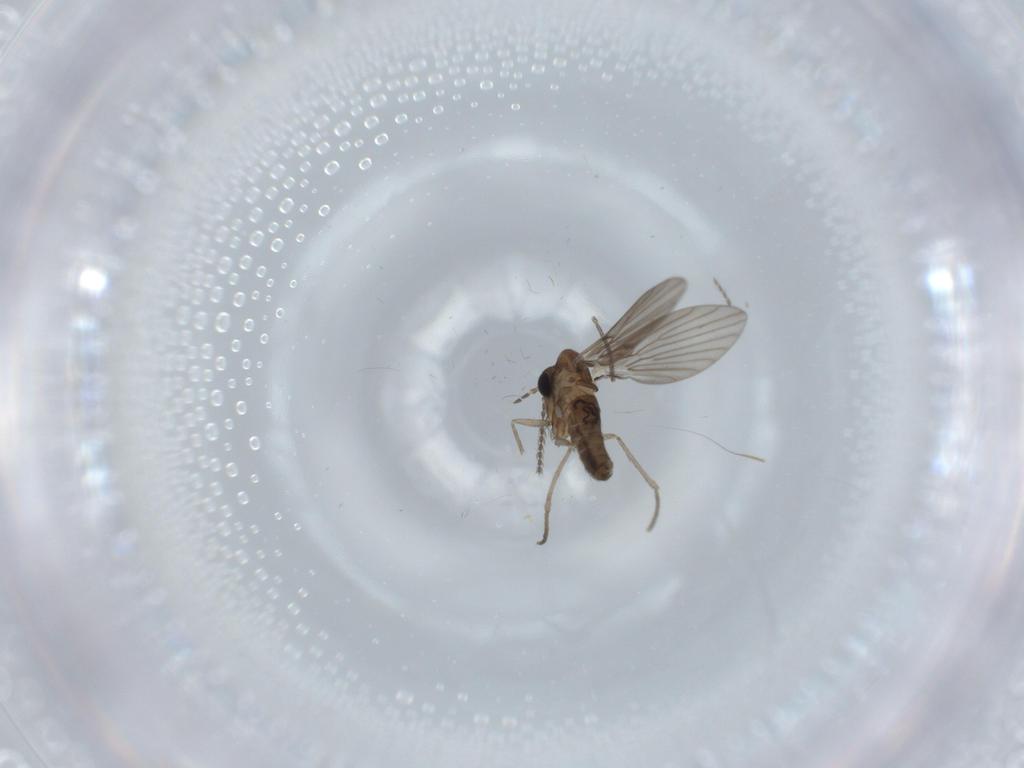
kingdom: Animalia
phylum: Arthropoda
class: Insecta
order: Diptera
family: Psychodidae
